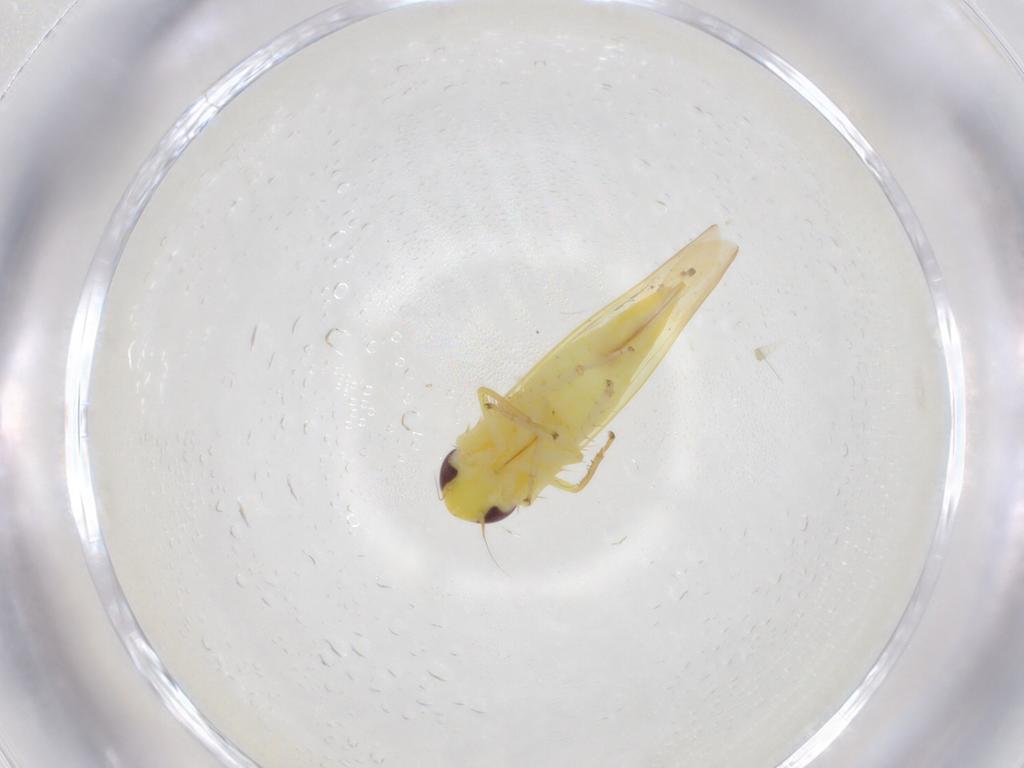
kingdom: Animalia
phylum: Arthropoda
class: Insecta
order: Hemiptera
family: Cicadellidae
